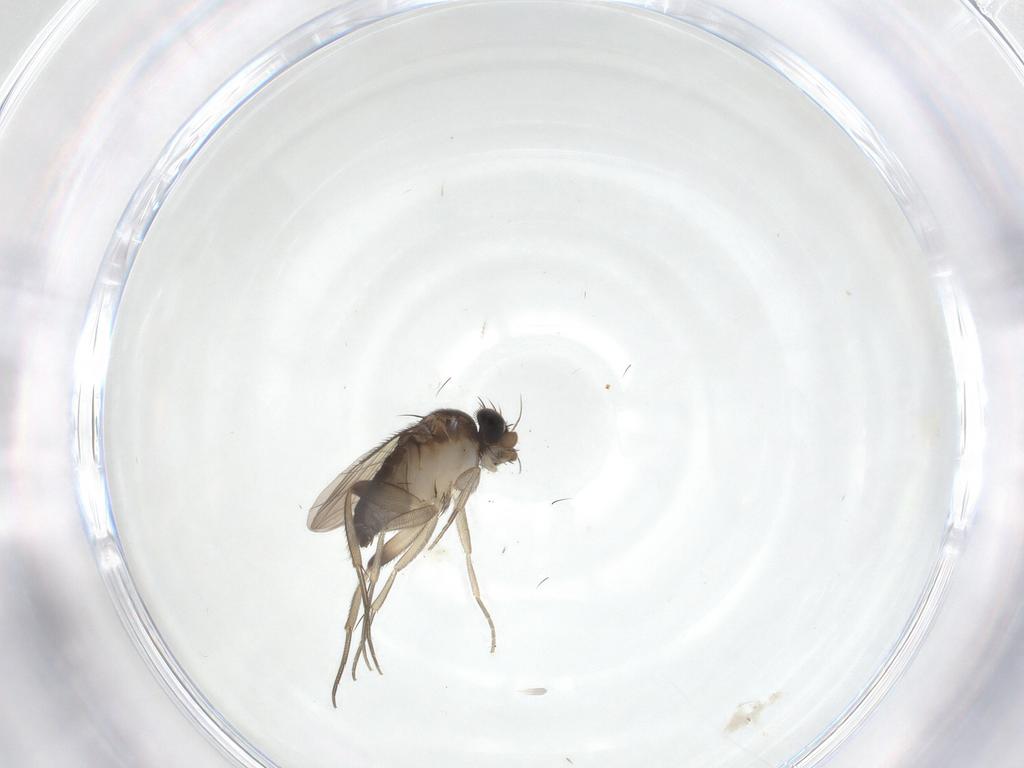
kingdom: Animalia
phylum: Arthropoda
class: Insecta
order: Diptera
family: Phoridae
